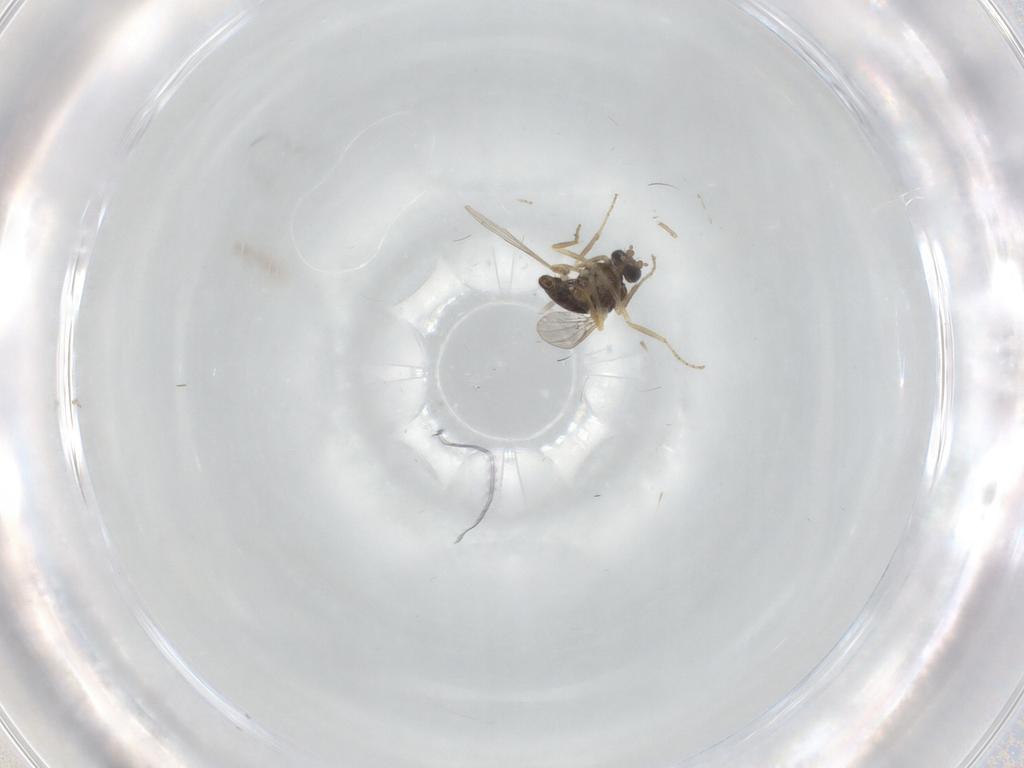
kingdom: Animalia
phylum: Arthropoda
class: Insecta
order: Diptera
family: Ceratopogonidae
